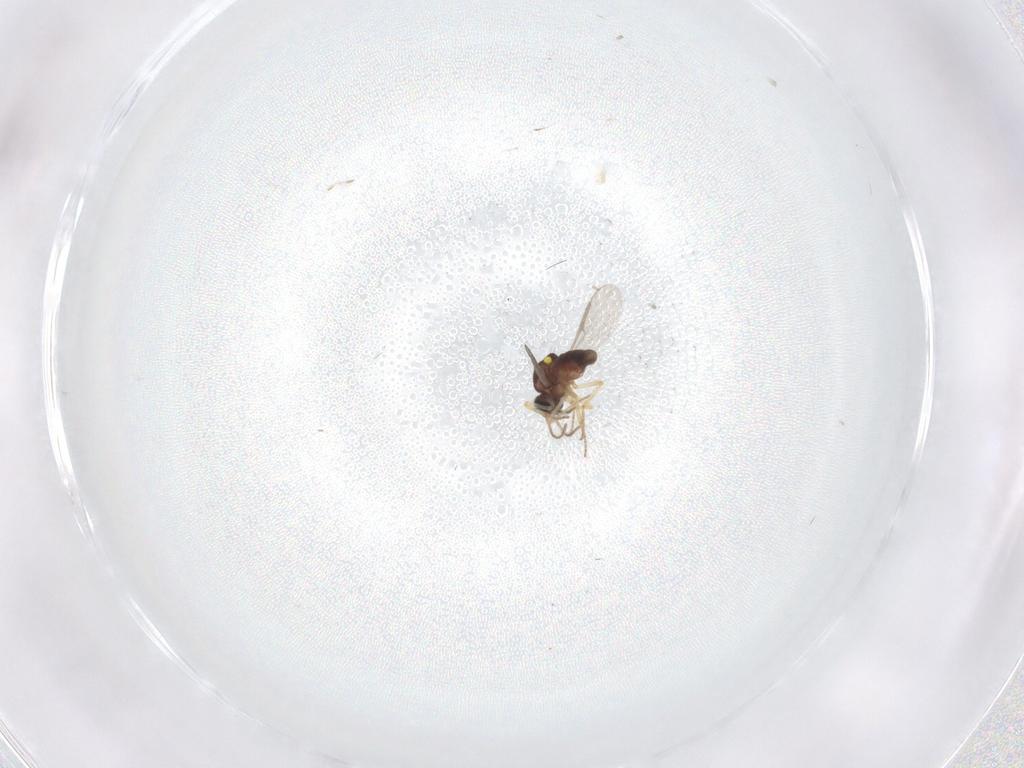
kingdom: Animalia
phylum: Arthropoda
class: Insecta
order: Diptera
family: Ceratopogonidae
